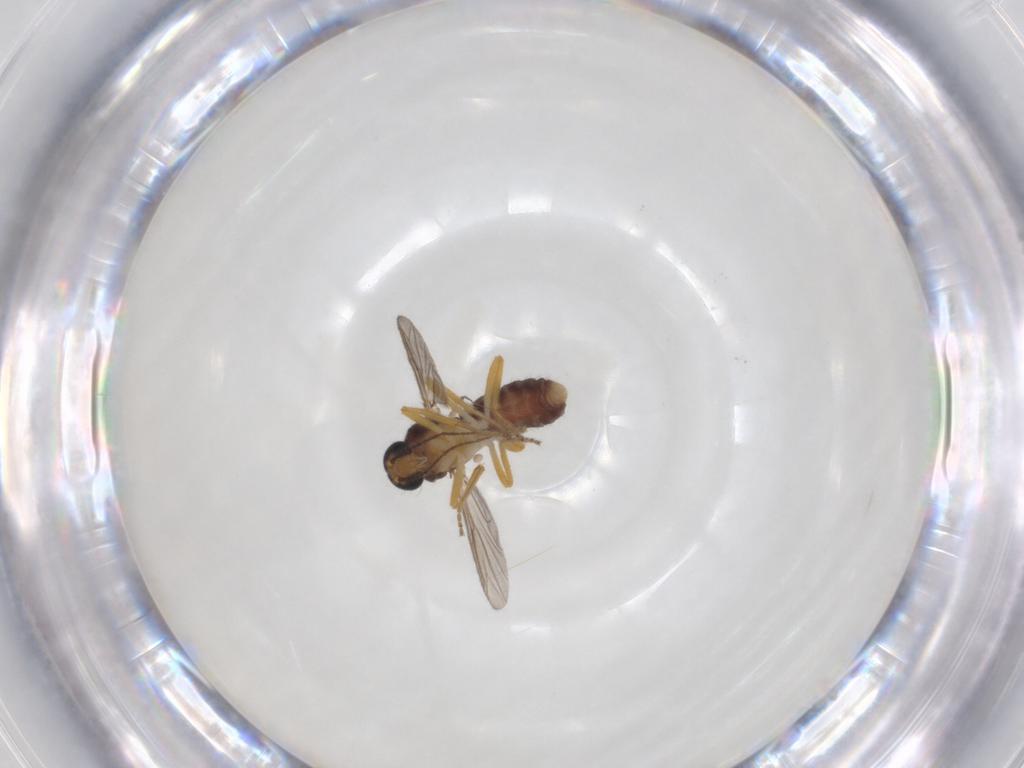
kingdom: Animalia
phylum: Arthropoda
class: Insecta
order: Diptera
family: Ceratopogonidae
